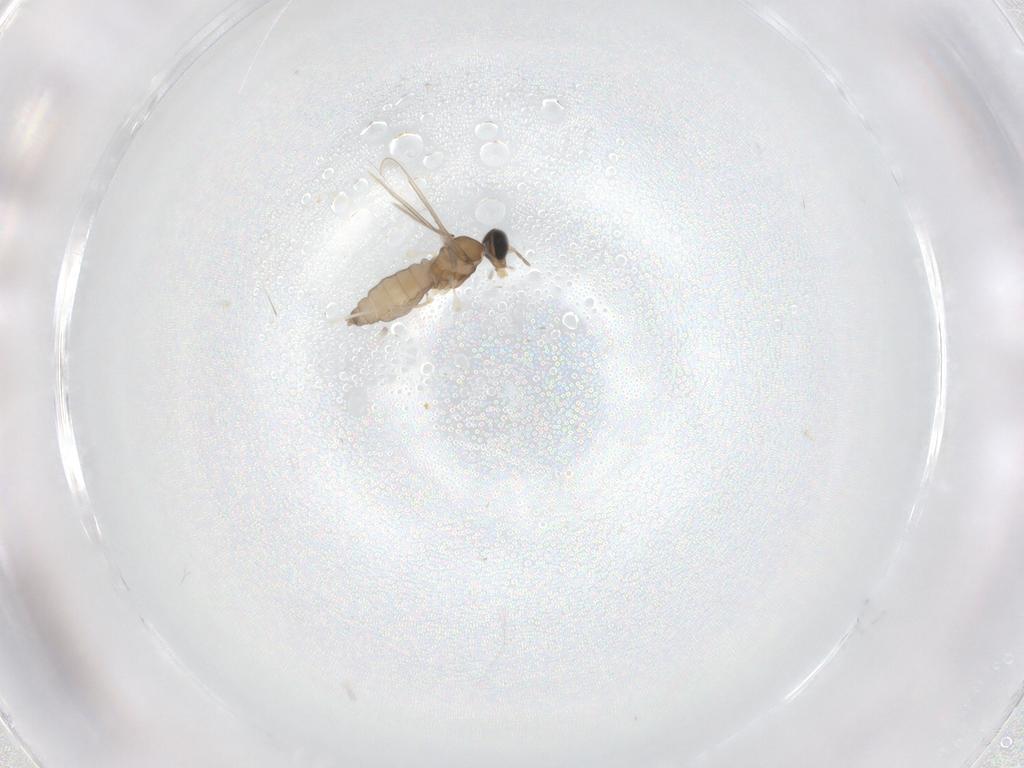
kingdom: Animalia
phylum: Arthropoda
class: Insecta
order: Diptera
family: Cecidomyiidae
